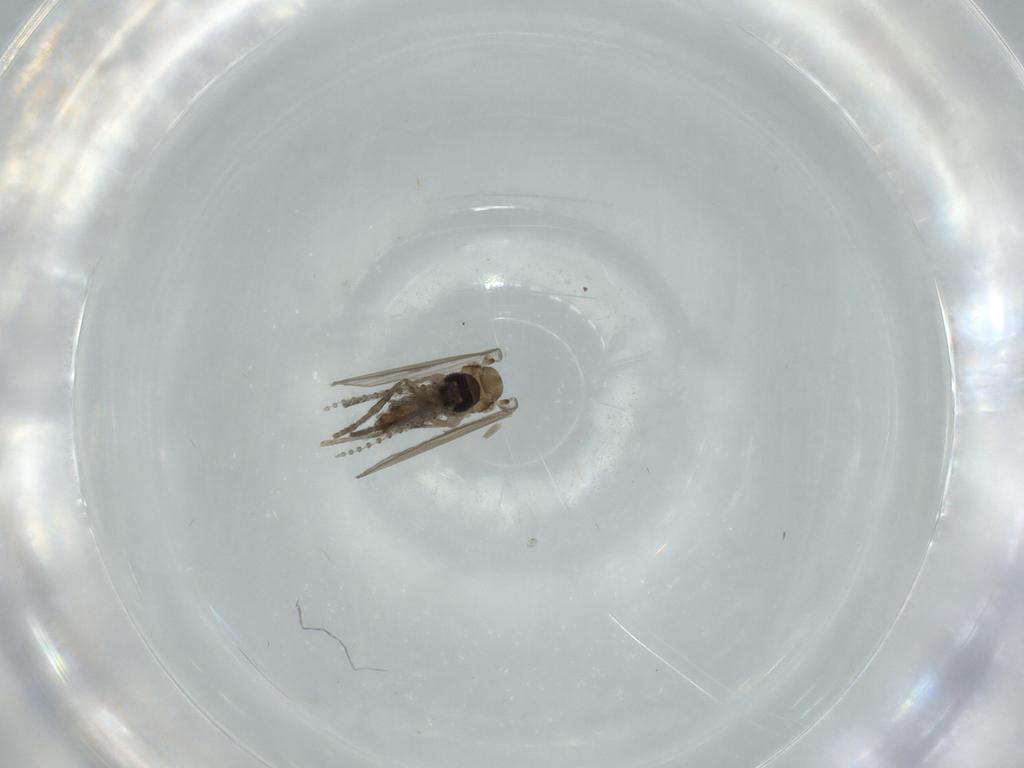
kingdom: Animalia
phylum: Arthropoda
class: Insecta
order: Diptera
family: Psychodidae
